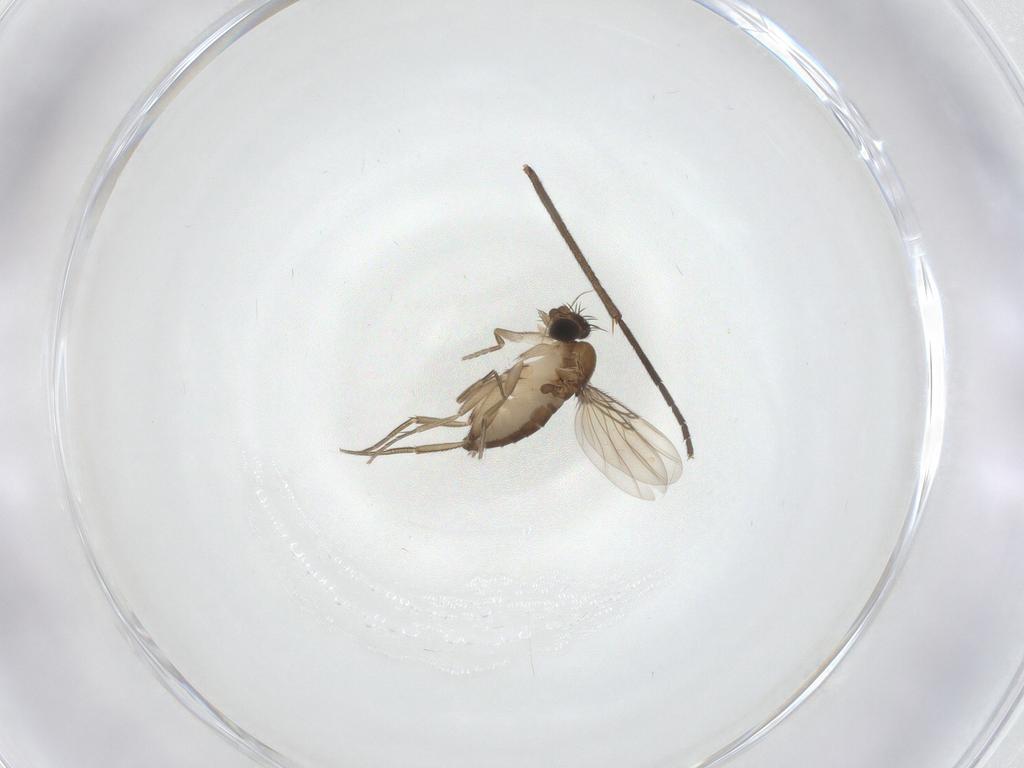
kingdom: Animalia
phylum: Arthropoda
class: Insecta
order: Diptera
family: Phoridae
